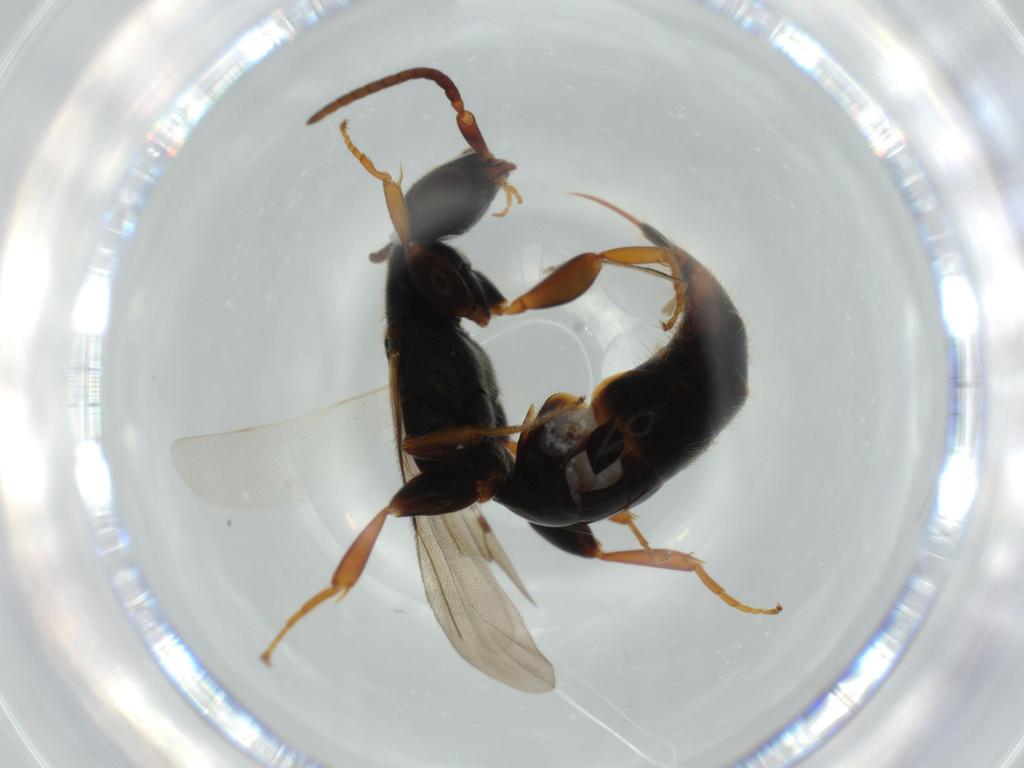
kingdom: Animalia
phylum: Arthropoda
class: Insecta
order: Hymenoptera
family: Bethylidae
